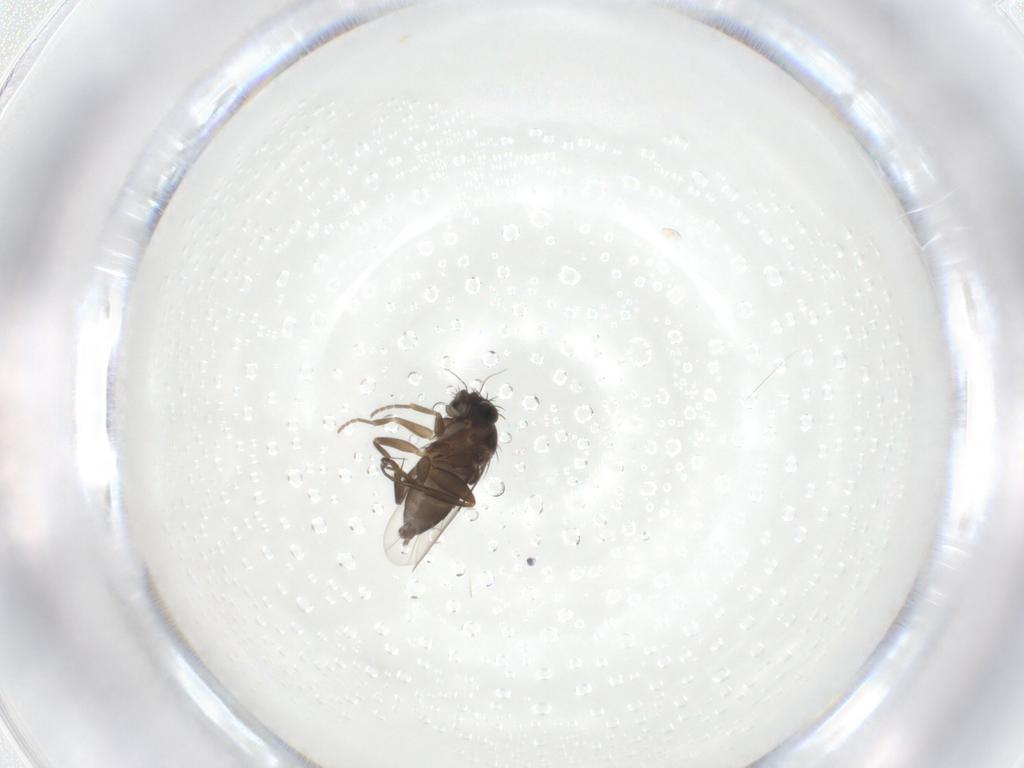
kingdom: Animalia
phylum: Arthropoda
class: Insecta
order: Diptera
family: Phoridae
